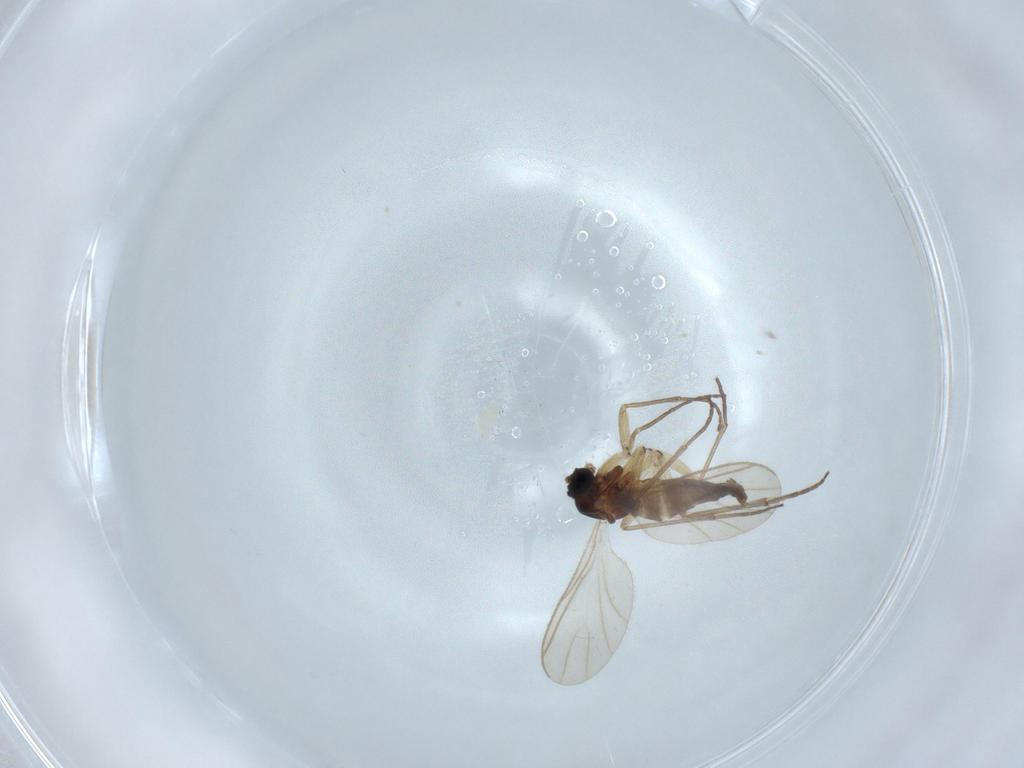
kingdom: Animalia
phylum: Arthropoda
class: Insecta
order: Diptera
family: Sciaridae
